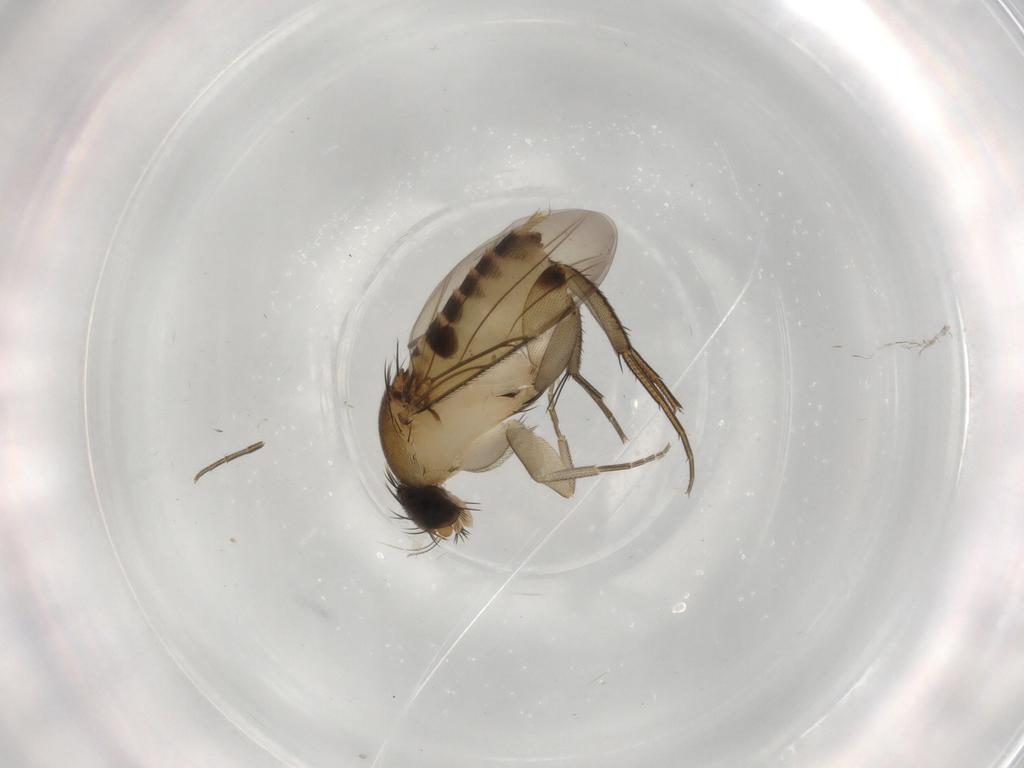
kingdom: Animalia
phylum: Arthropoda
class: Insecta
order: Diptera
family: Phoridae
